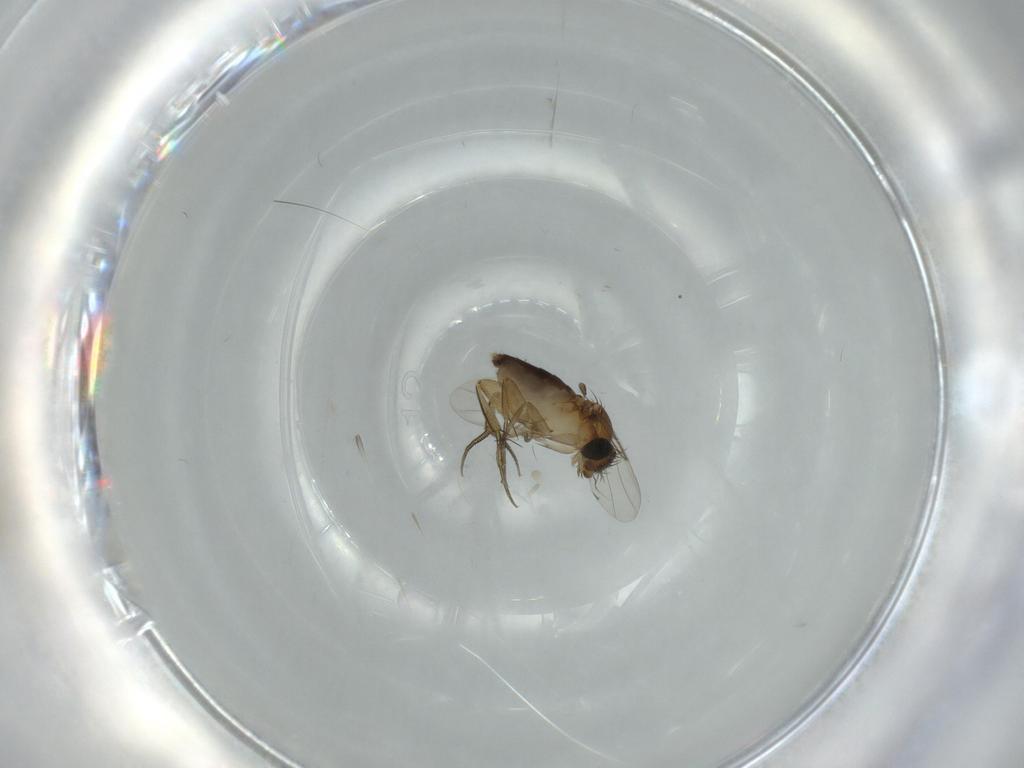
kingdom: Animalia
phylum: Arthropoda
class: Insecta
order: Diptera
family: Phoridae
